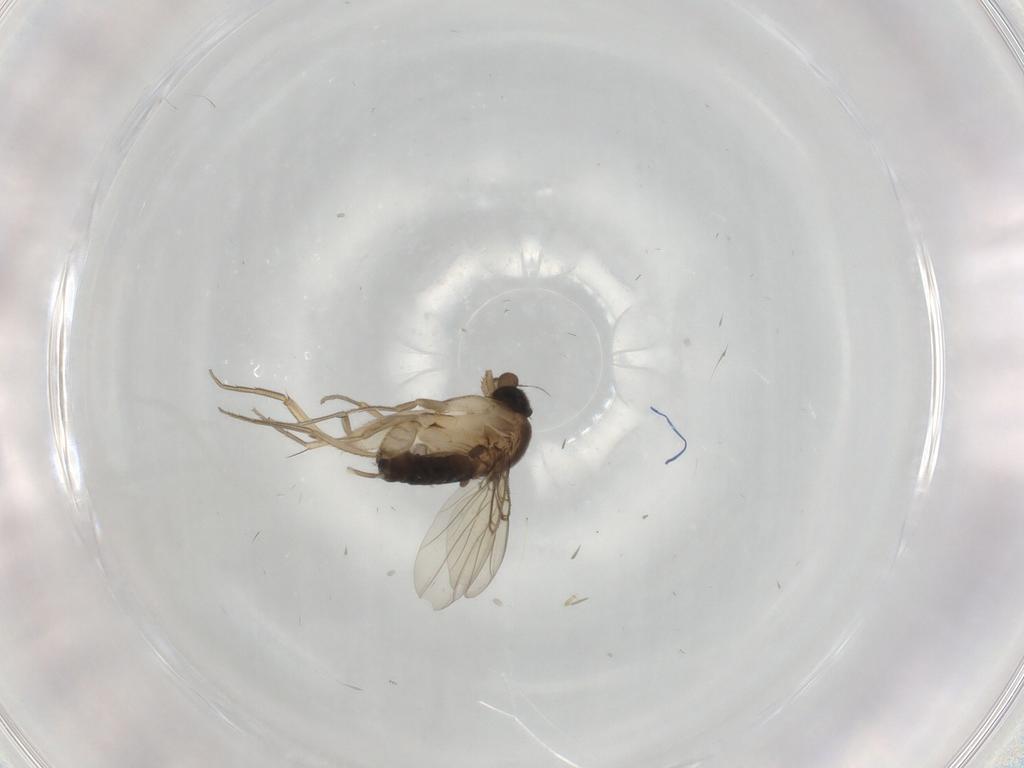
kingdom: Animalia
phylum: Arthropoda
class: Insecta
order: Diptera
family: Phoridae
